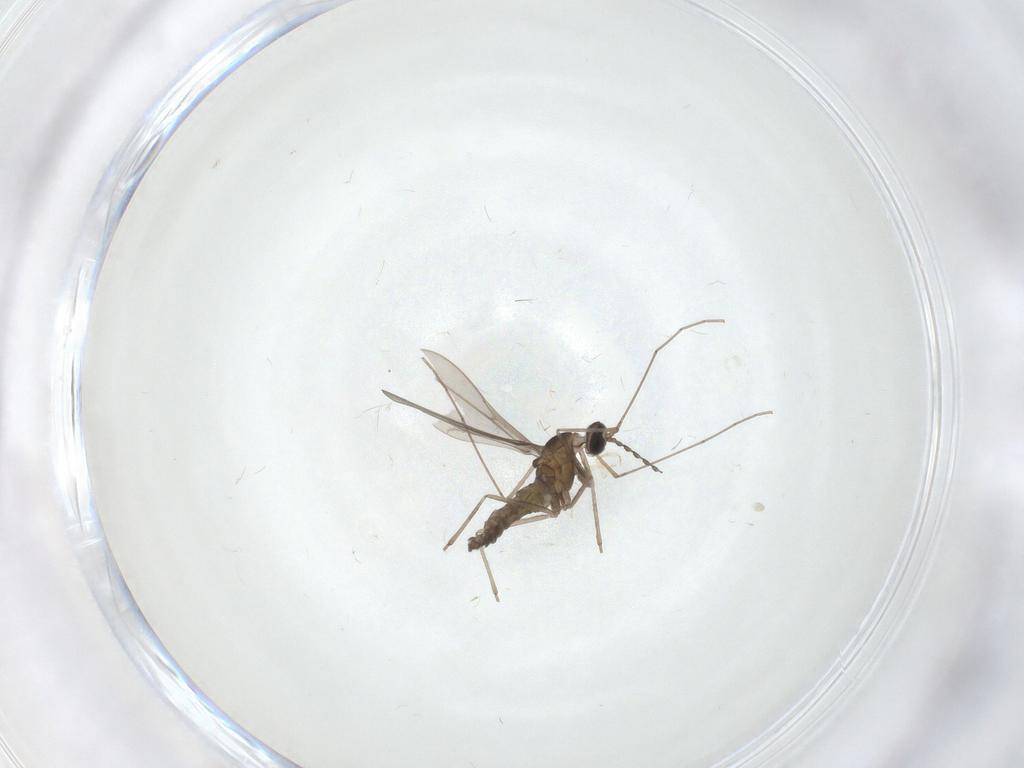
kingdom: Animalia
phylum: Arthropoda
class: Insecta
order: Diptera
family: Cecidomyiidae
